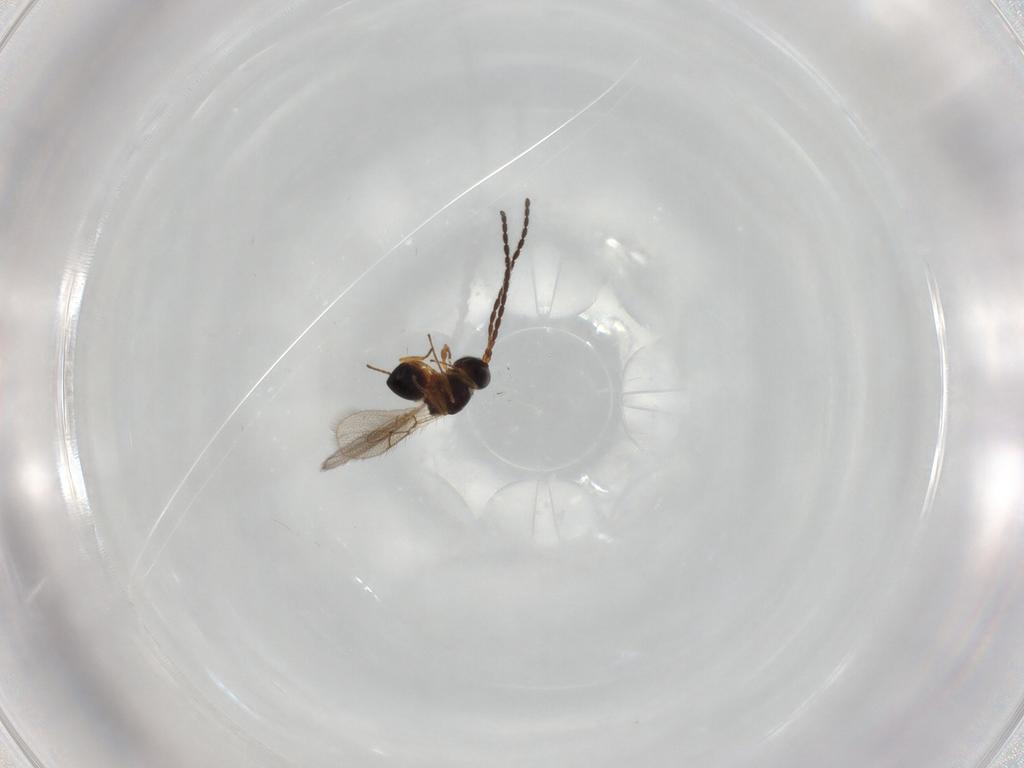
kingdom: Animalia
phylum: Arthropoda
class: Insecta
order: Hymenoptera
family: Figitidae
